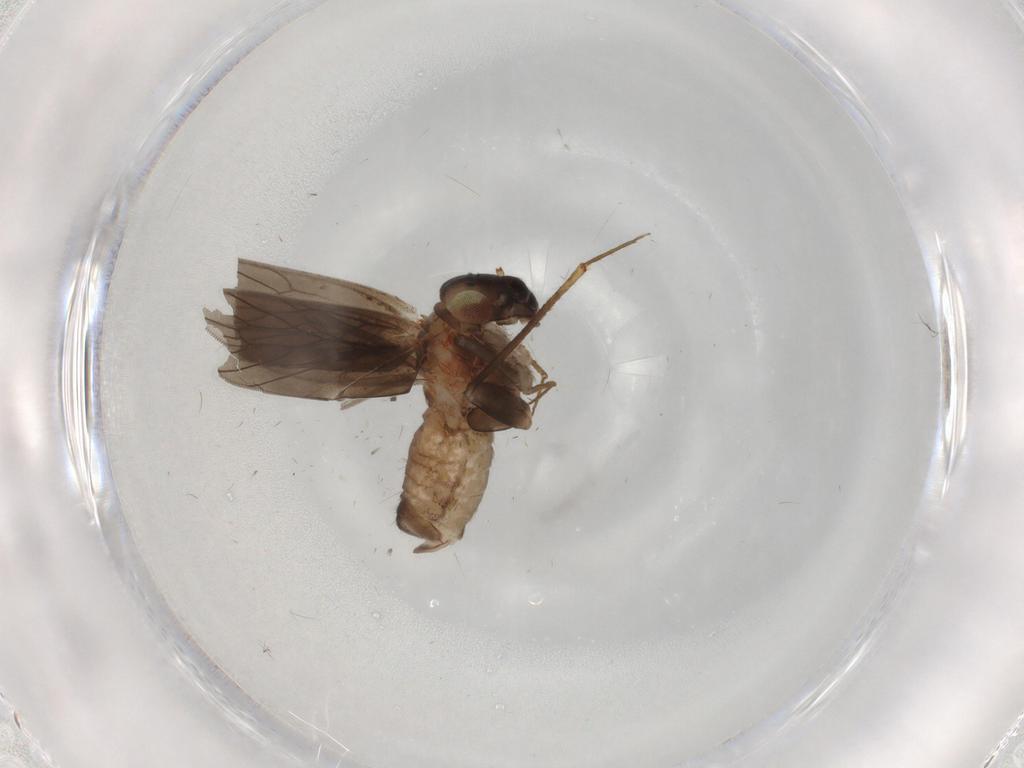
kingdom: Animalia
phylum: Arthropoda
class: Insecta
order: Psocodea
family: Lepidopsocidae
